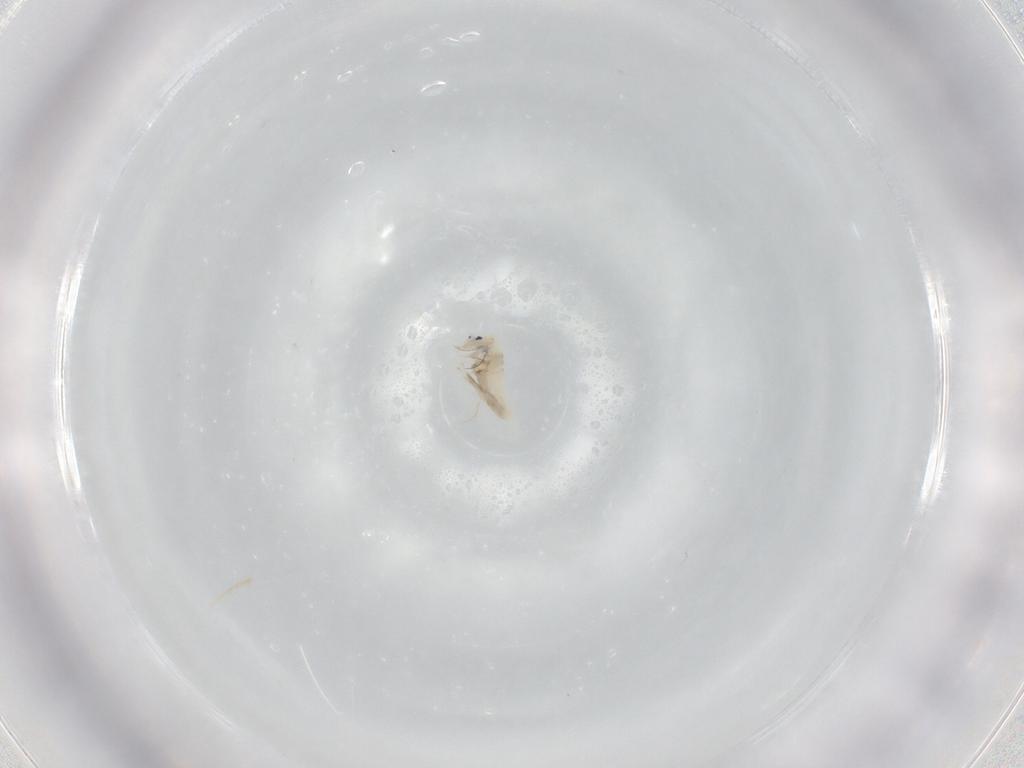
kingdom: Animalia
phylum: Arthropoda
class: Collembola
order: Entomobryomorpha
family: Entomobryidae
